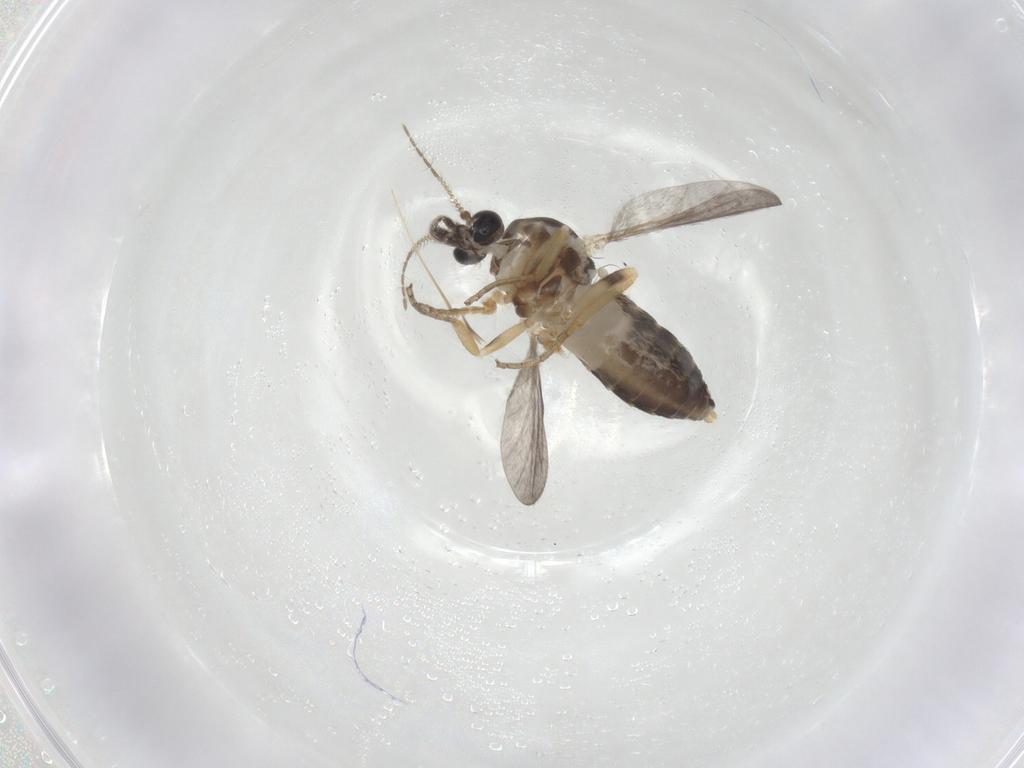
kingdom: Animalia
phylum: Arthropoda
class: Insecta
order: Diptera
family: Ceratopogonidae
